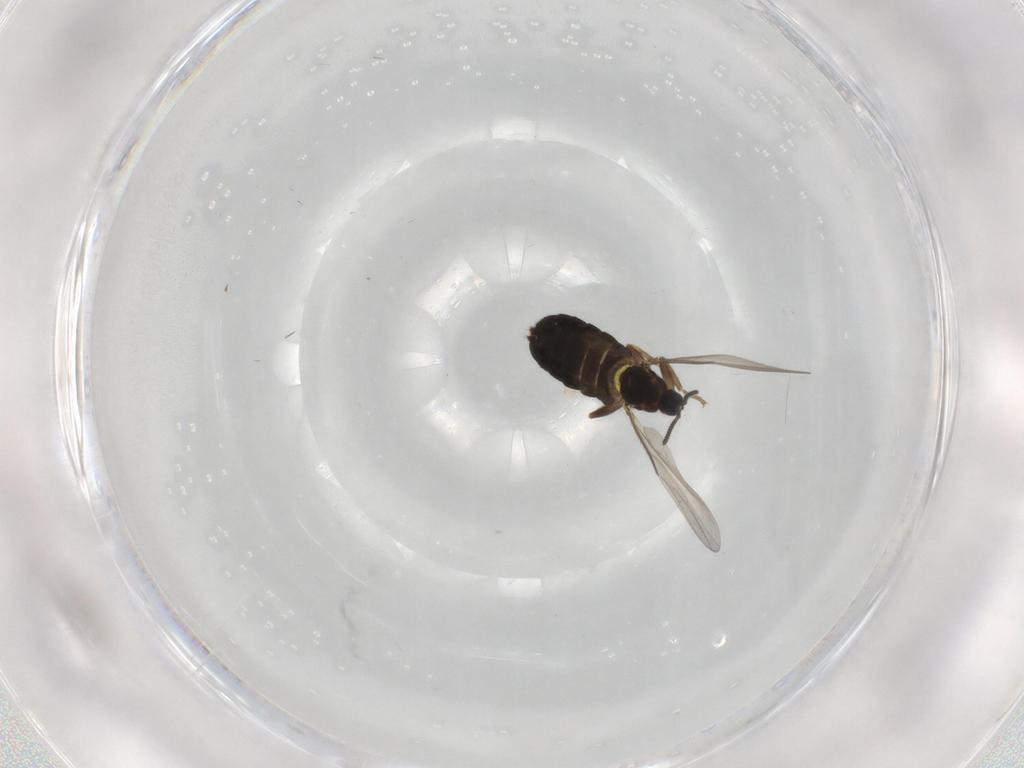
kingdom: Animalia
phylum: Arthropoda
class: Insecta
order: Diptera
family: Scatopsidae
